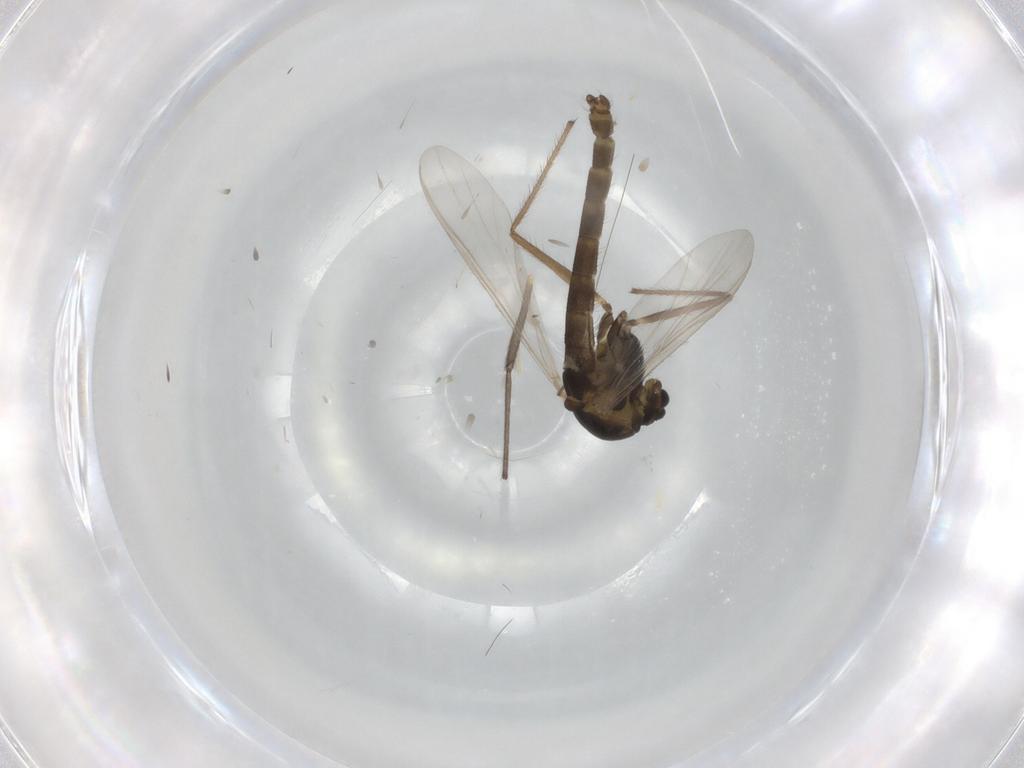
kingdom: Animalia
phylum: Arthropoda
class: Insecta
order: Diptera
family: Chironomidae
